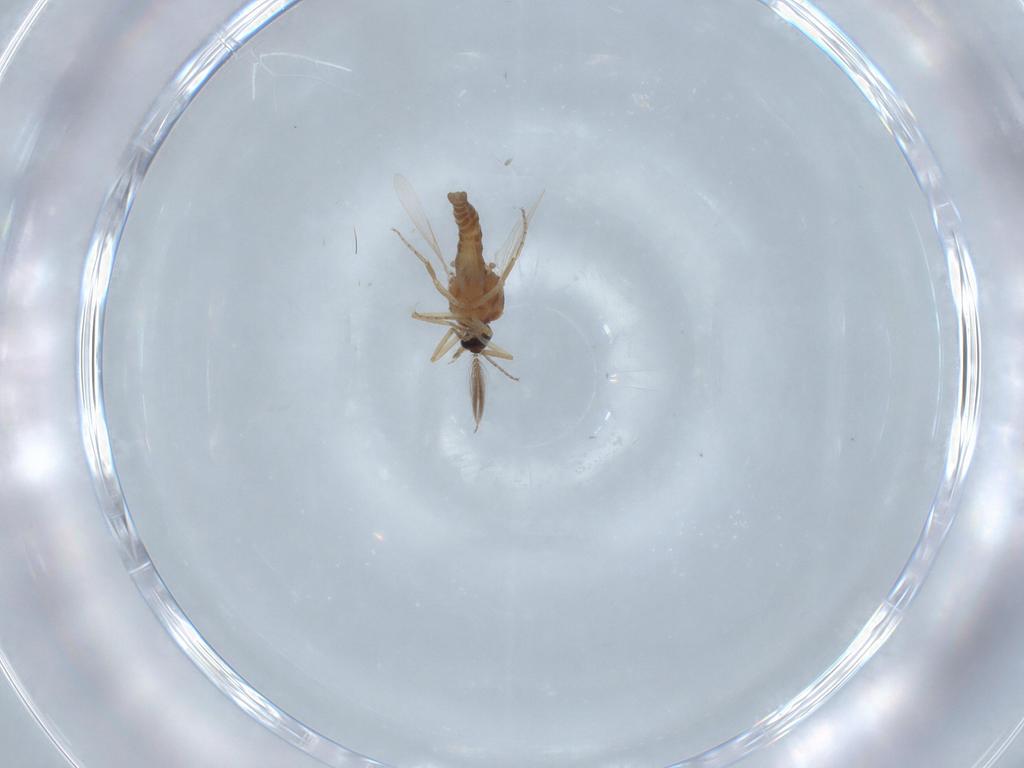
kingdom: Animalia
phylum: Arthropoda
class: Insecta
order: Diptera
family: Ceratopogonidae
